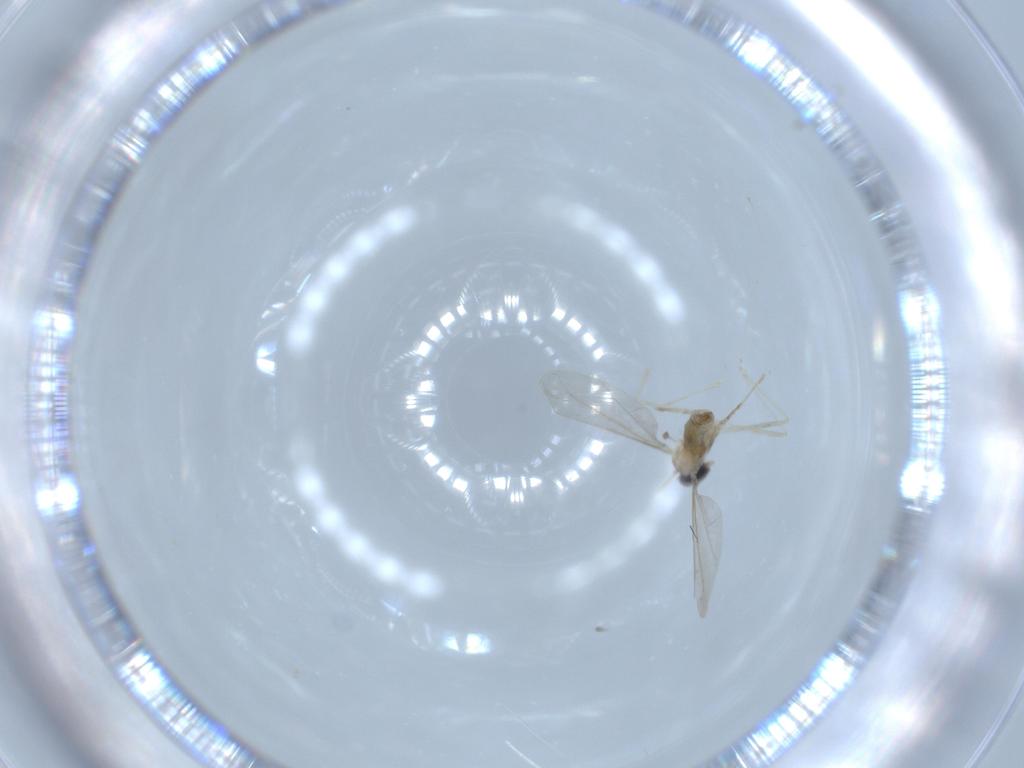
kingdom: Animalia
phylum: Arthropoda
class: Insecta
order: Diptera
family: Cecidomyiidae
